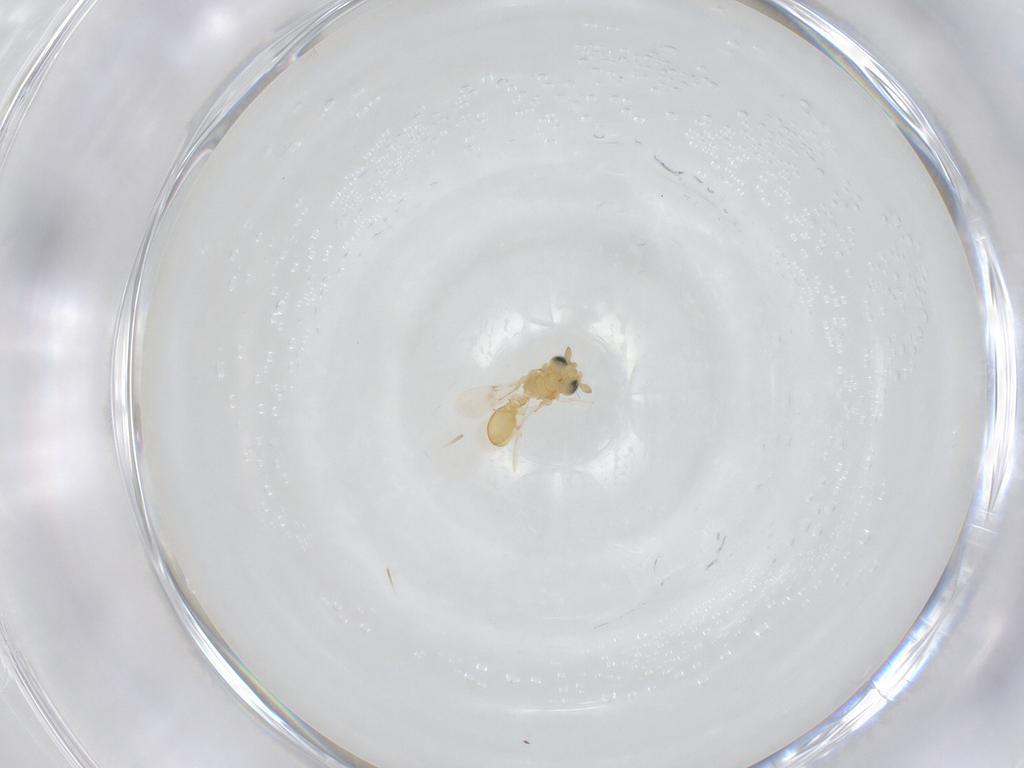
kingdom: Animalia
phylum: Arthropoda
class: Insecta
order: Hymenoptera
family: Scelionidae
